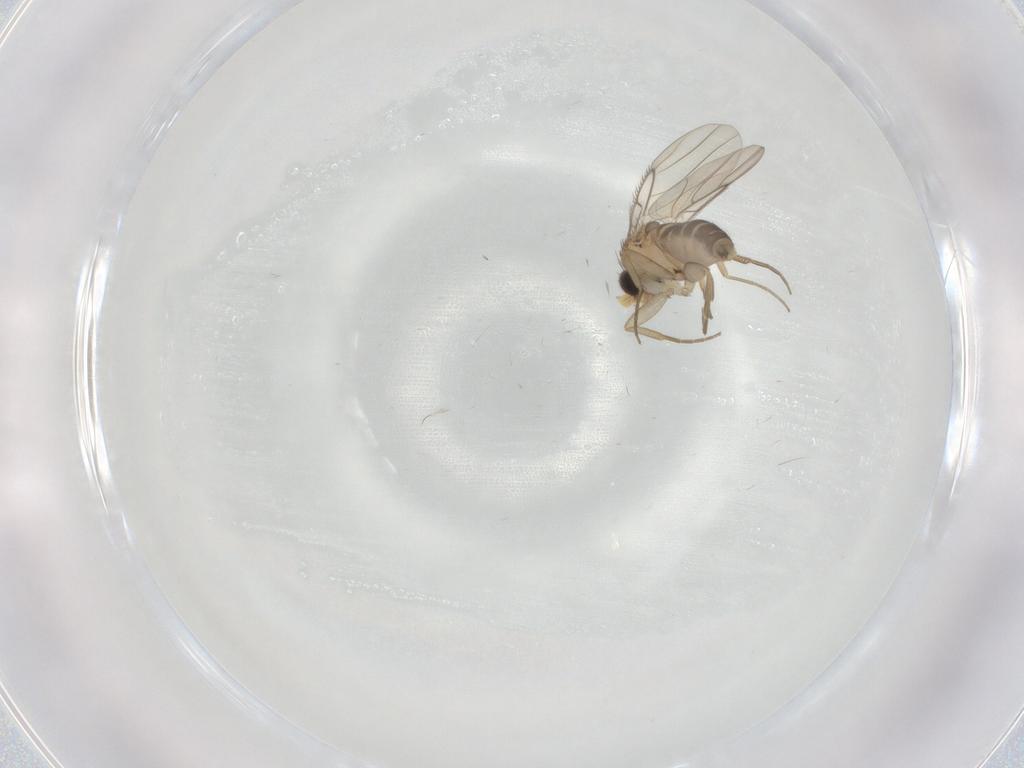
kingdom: Animalia
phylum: Arthropoda
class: Insecta
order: Diptera
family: Phoridae
